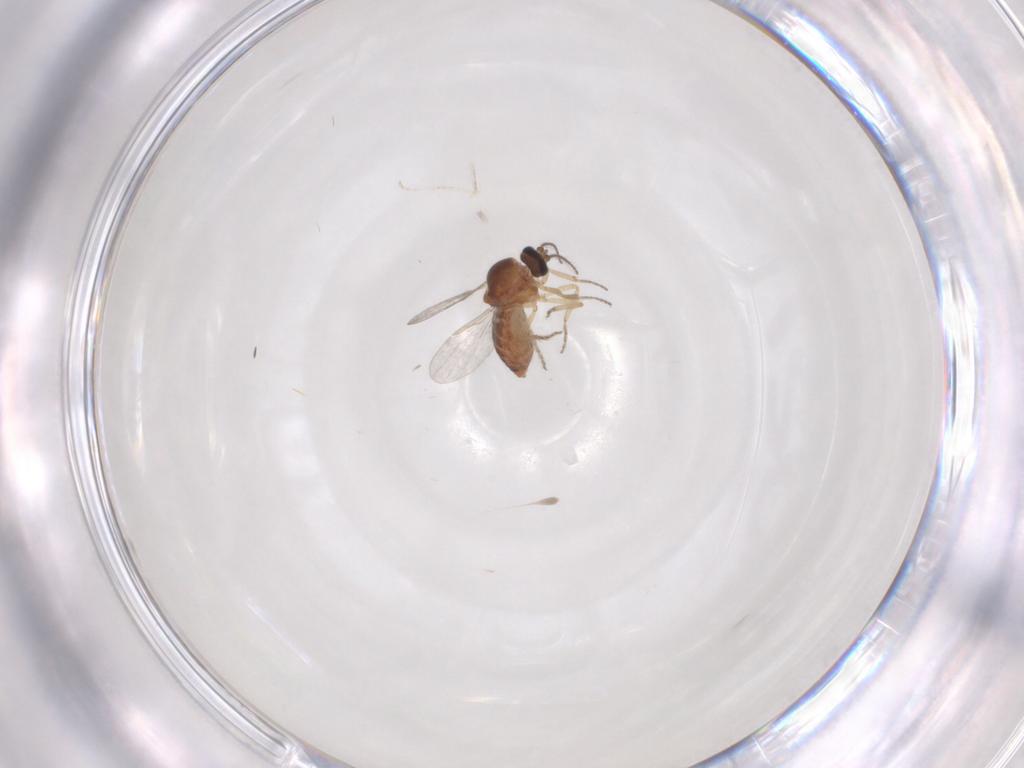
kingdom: Animalia
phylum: Arthropoda
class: Insecta
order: Diptera
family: Ceratopogonidae
